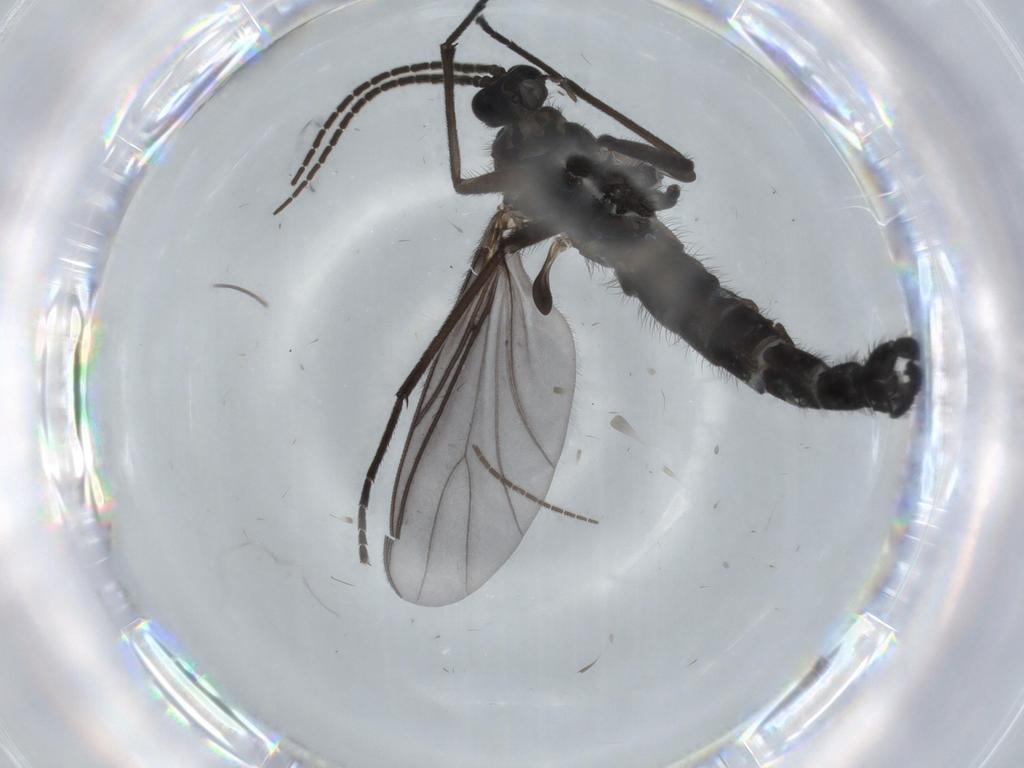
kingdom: Animalia
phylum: Arthropoda
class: Insecta
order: Diptera
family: Sciaridae
